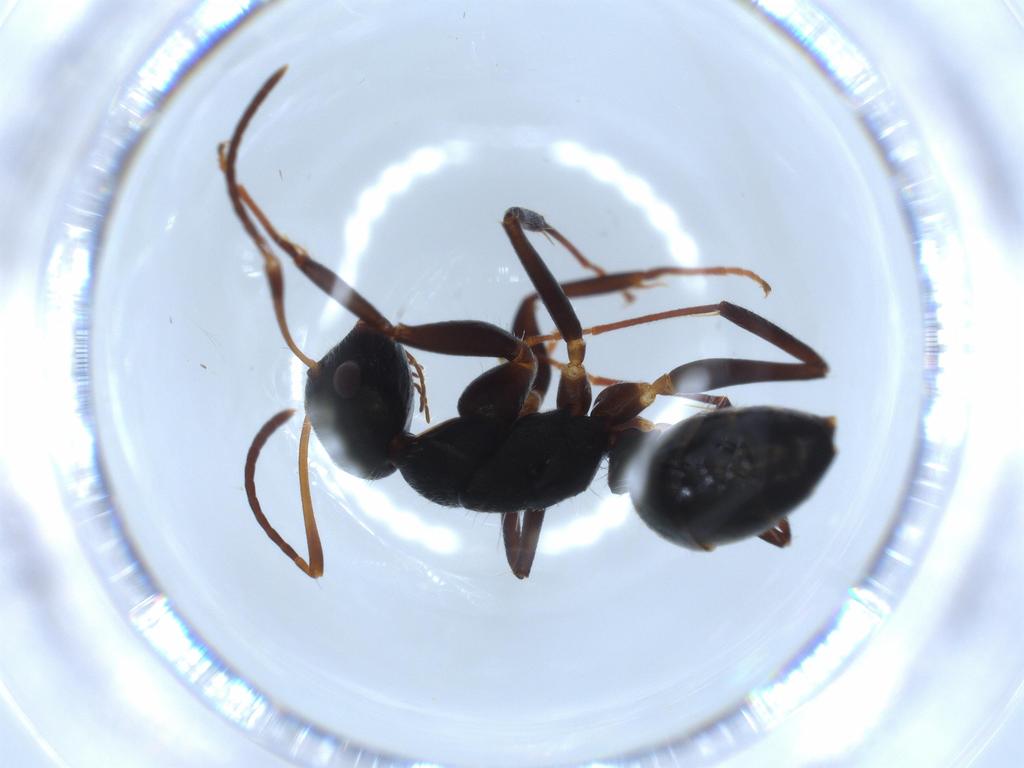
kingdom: Animalia
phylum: Arthropoda
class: Insecta
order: Hymenoptera
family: Formicidae
